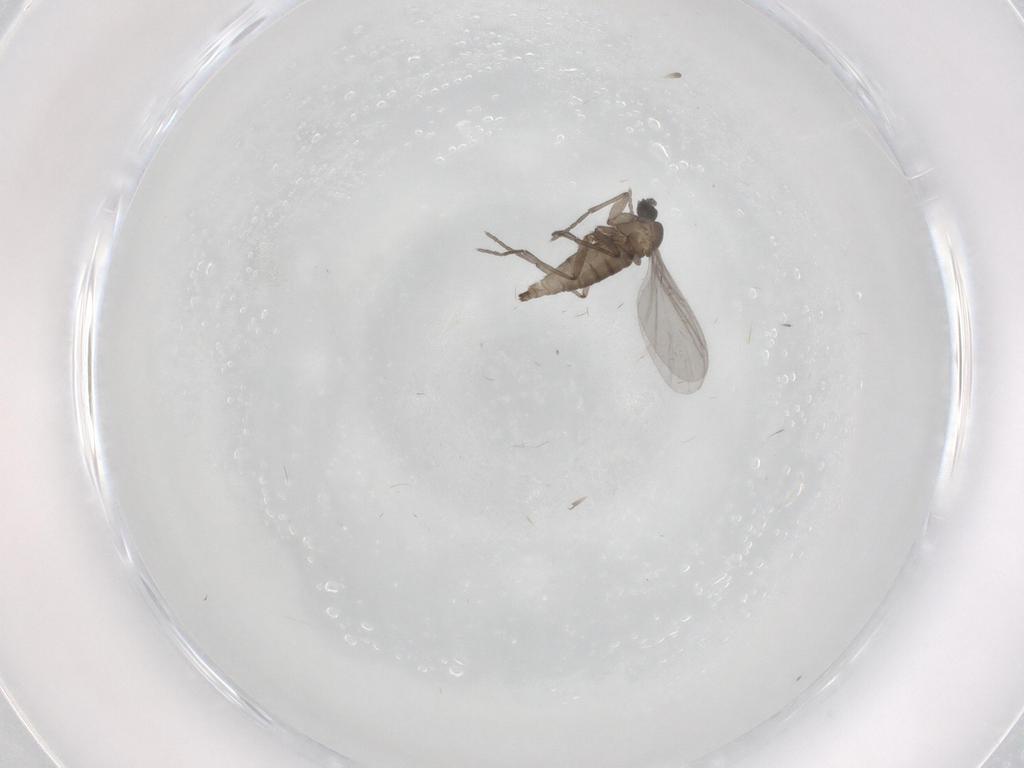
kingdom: Animalia
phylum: Arthropoda
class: Insecta
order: Diptera
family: Sciaridae
